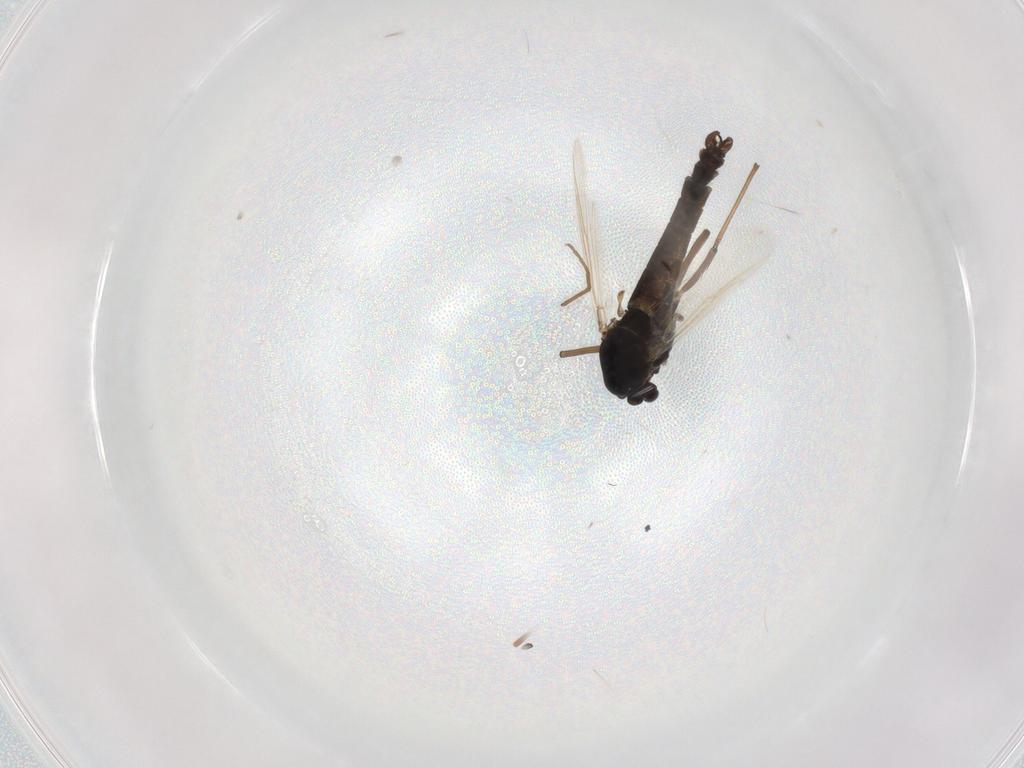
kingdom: Animalia
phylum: Arthropoda
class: Insecta
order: Diptera
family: Chironomidae
